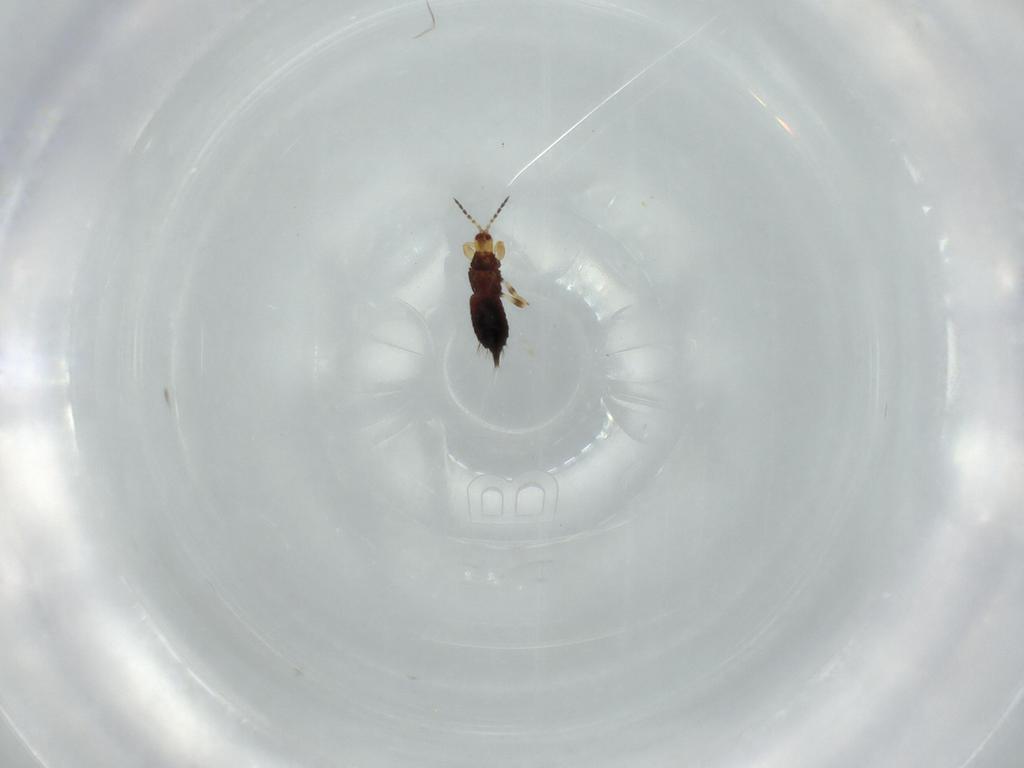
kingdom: Animalia
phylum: Arthropoda
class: Insecta
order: Thysanoptera
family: Phlaeothripidae
